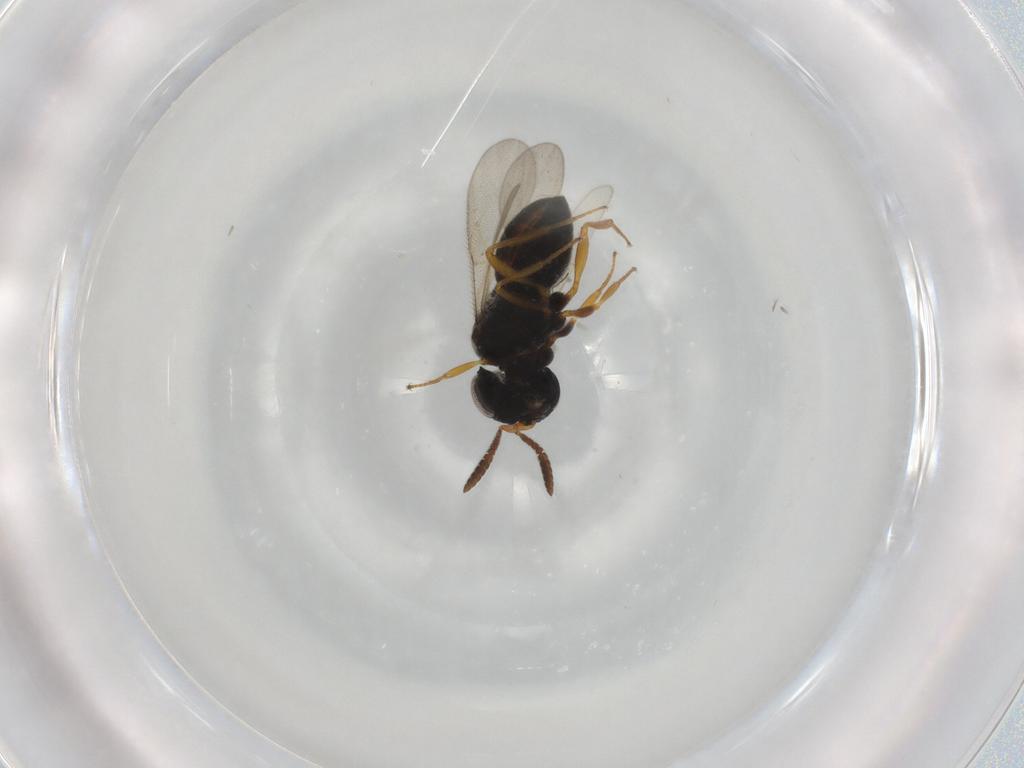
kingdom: Animalia
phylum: Arthropoda
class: Insecta
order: Hymenoptera
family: Scelionidae
